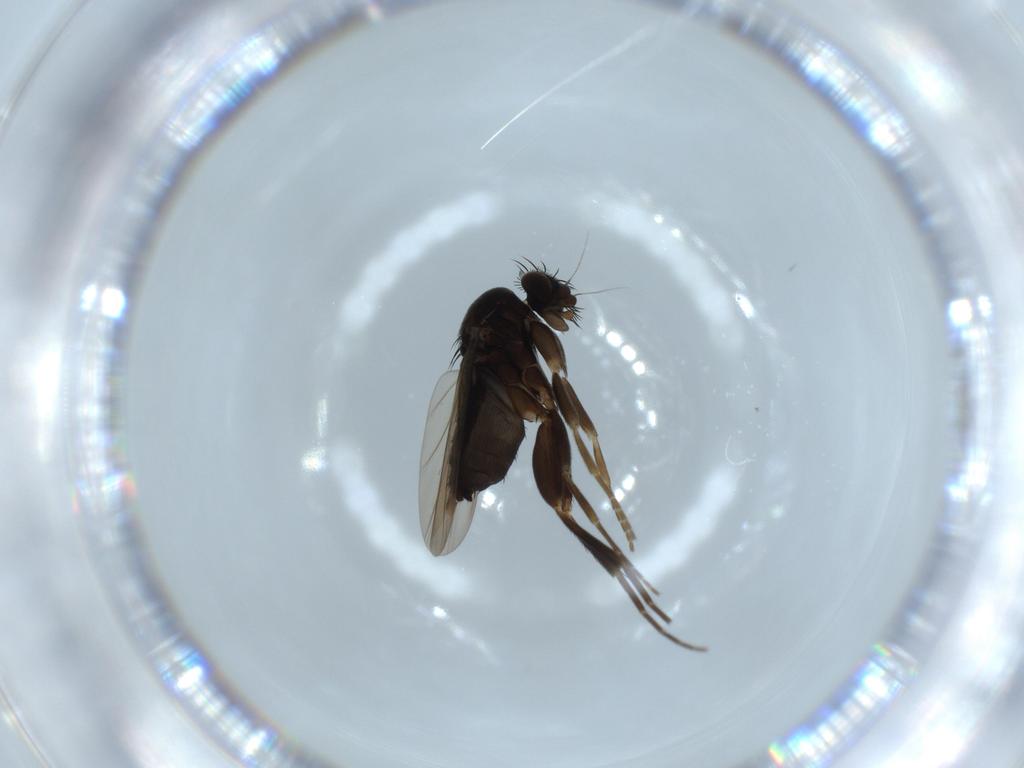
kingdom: Animalia
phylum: Arthropoda
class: Insecta
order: Diptera
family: Phoridae
